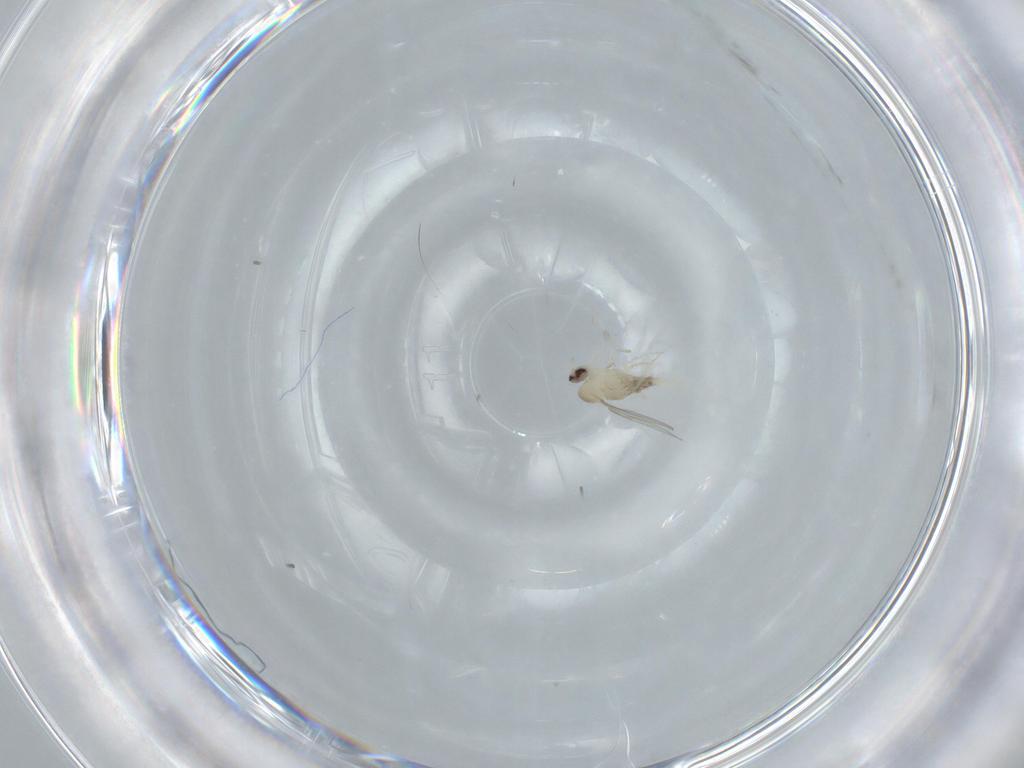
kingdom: Animalia
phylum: Arthropoda
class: Insecta
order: Diptera
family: Cecidomyiidae
